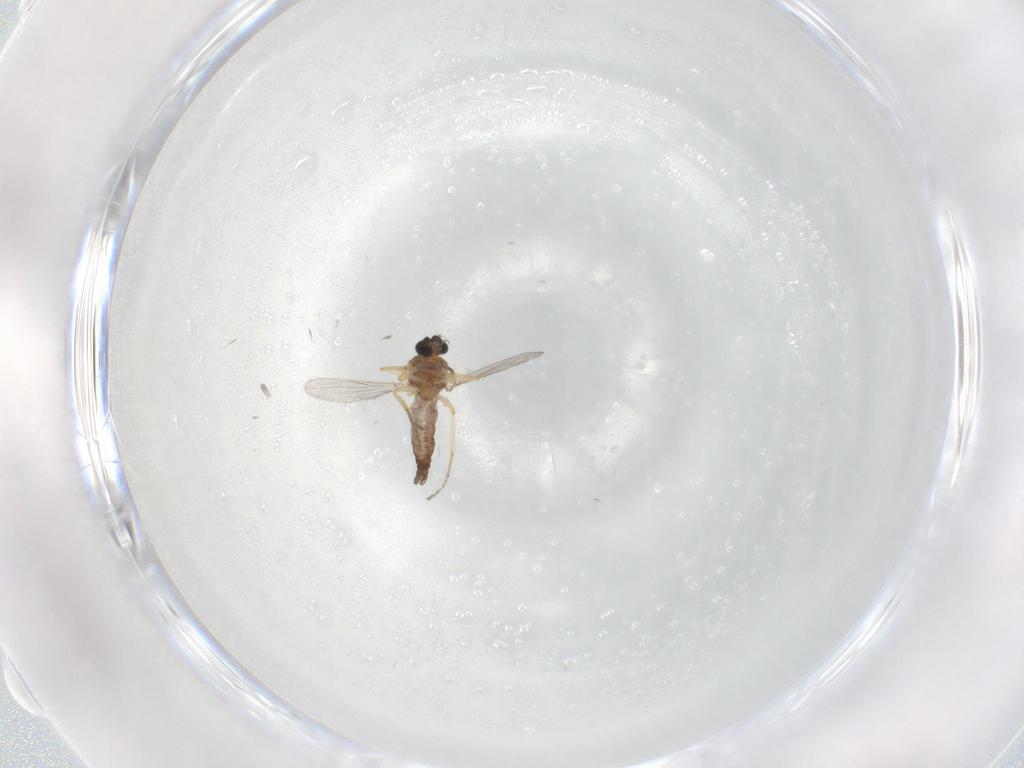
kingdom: Animalia
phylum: Arthropoda
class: Insecta
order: Diptera
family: Ceratopogonidae
